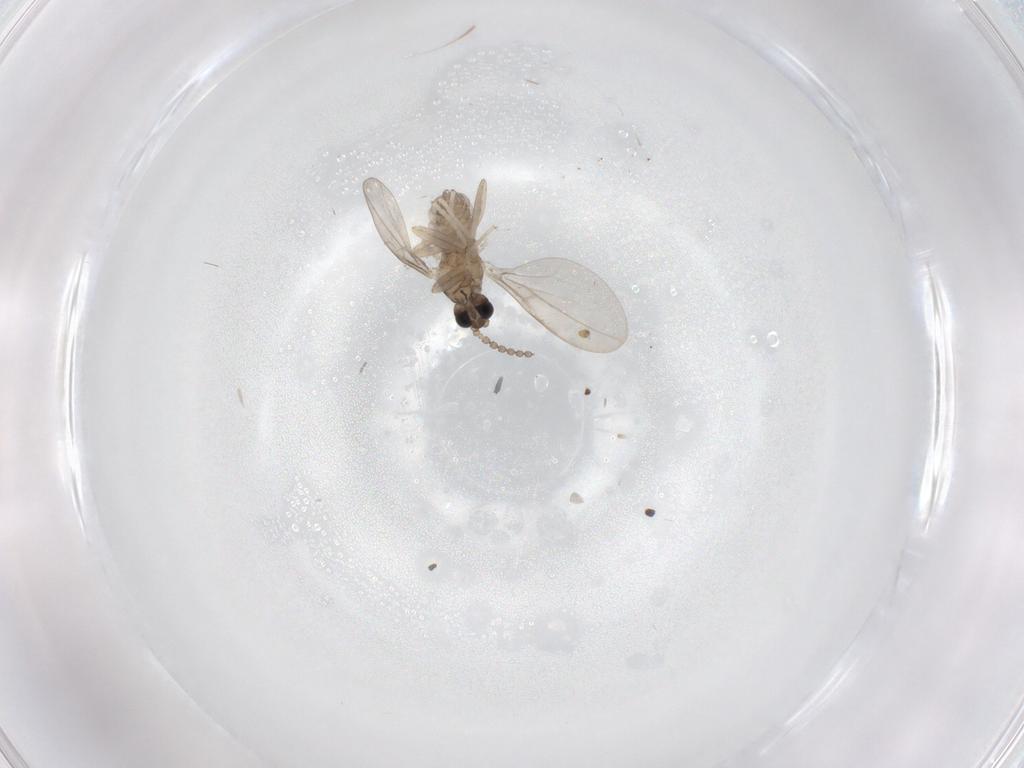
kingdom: Animalia
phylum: Arthropoda
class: Insecta
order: Diptera
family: Cecidomyiidae
